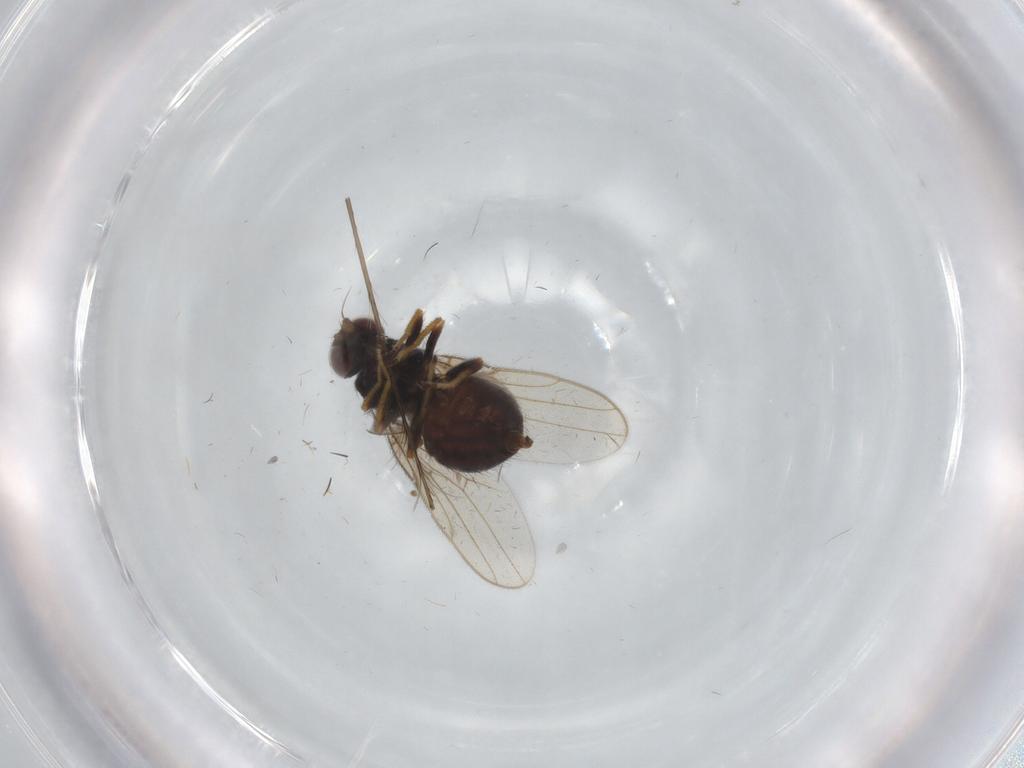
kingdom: Animalia
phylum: Arthropoda
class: Insecta
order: Diptera
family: Chloropidae
